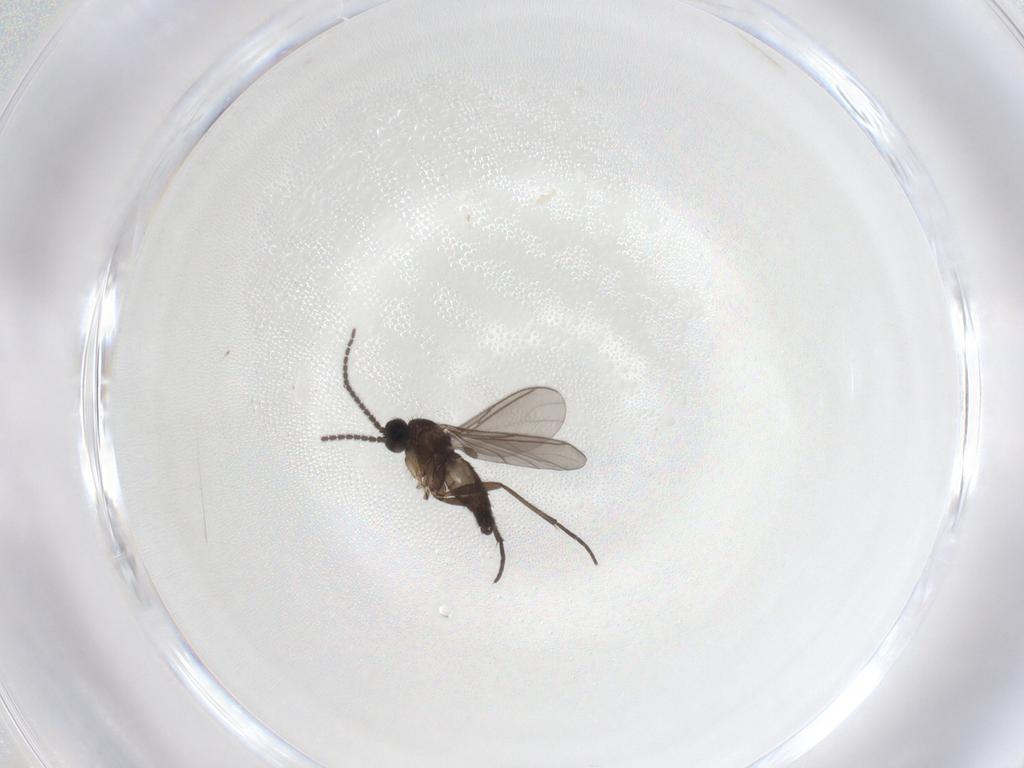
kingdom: Animalia
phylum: Arthropoda
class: Insecta
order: Diptera
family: Sciaridae
